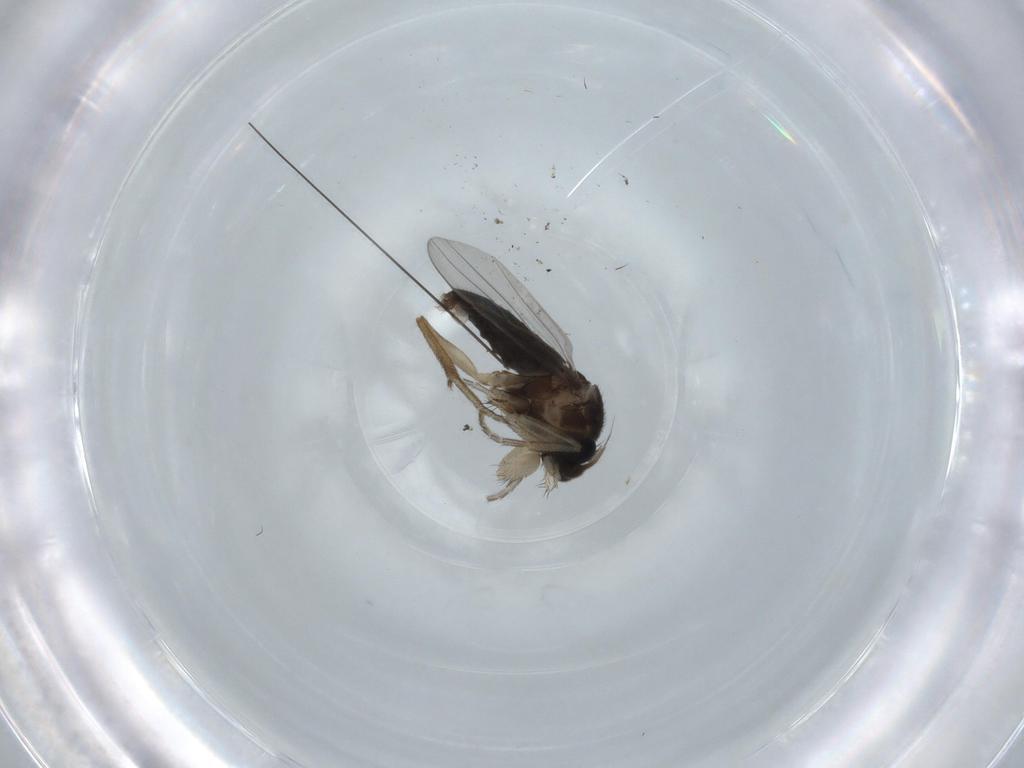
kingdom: Animalia
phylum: Arthropoda
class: Insecta
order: Diptera
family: Phoridae
